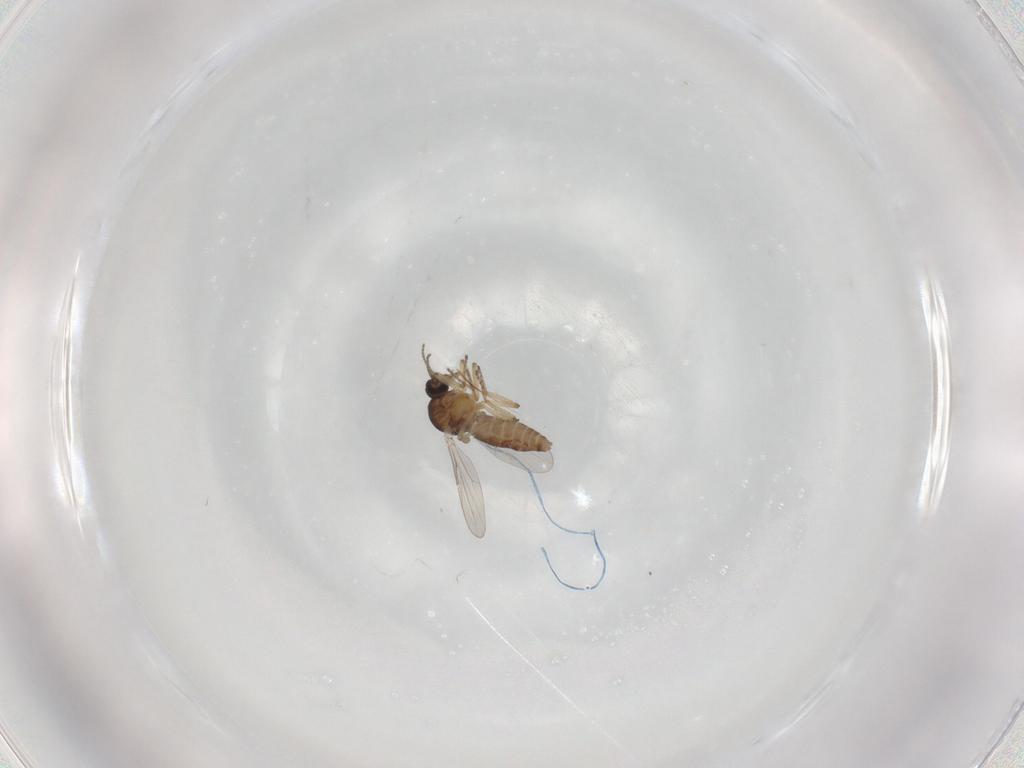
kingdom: Animalia
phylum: Arthropoda
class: Insecta
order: Diptera
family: Ceratopogonidae
